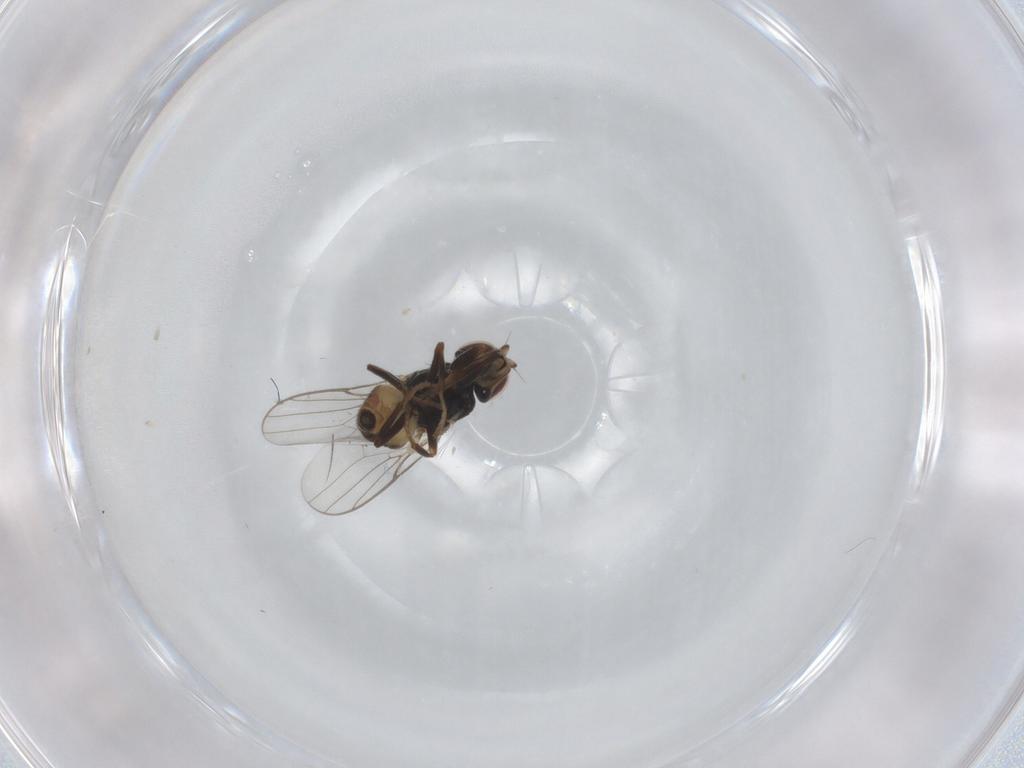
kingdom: Animalia
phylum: Arthropoda
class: Insecta
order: Diptera
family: Chloropidae
